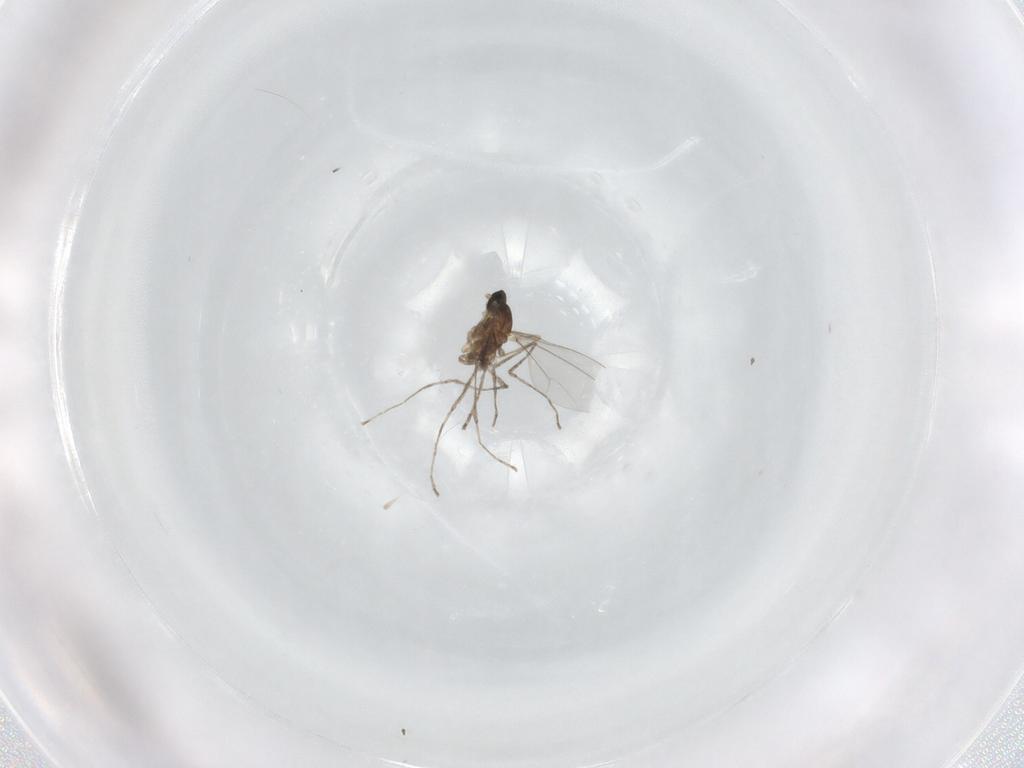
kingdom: Animalia
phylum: Arthropoda
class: Insecta
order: Diptera
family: Cecidomyiidae
